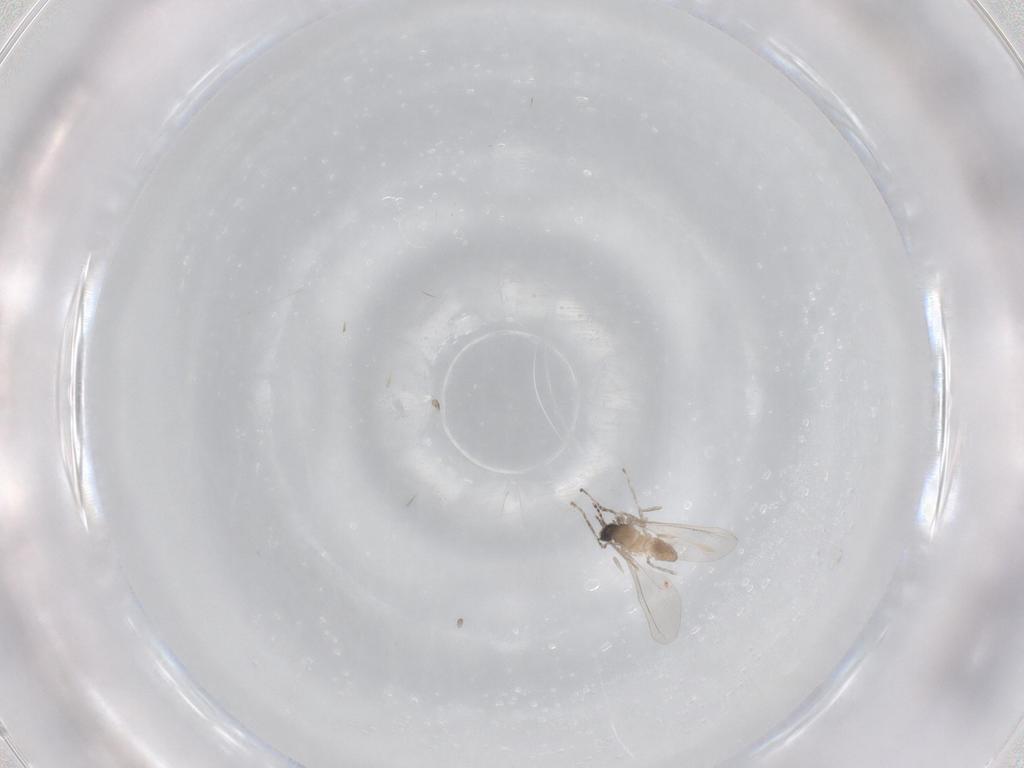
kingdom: Animalia
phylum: Arthropoda
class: Insecta
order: Diptera
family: Cecidomyiidae
